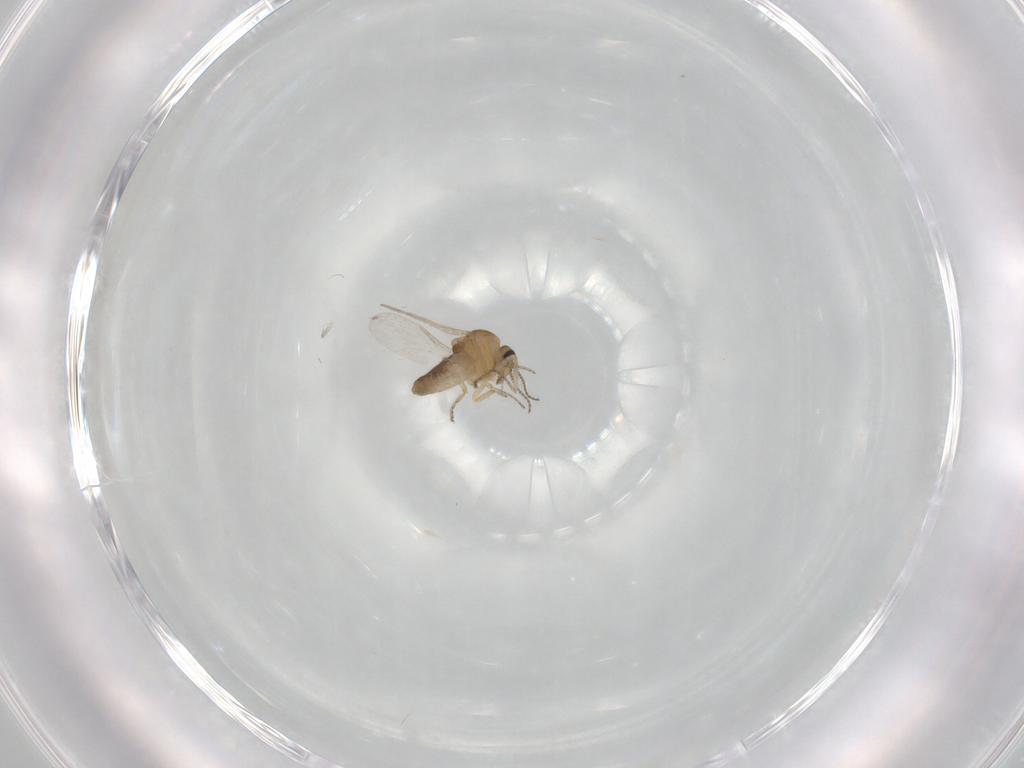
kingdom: Animalia
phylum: Arthropoda
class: Insecta
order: Diptera
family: Ceratopogonidae
